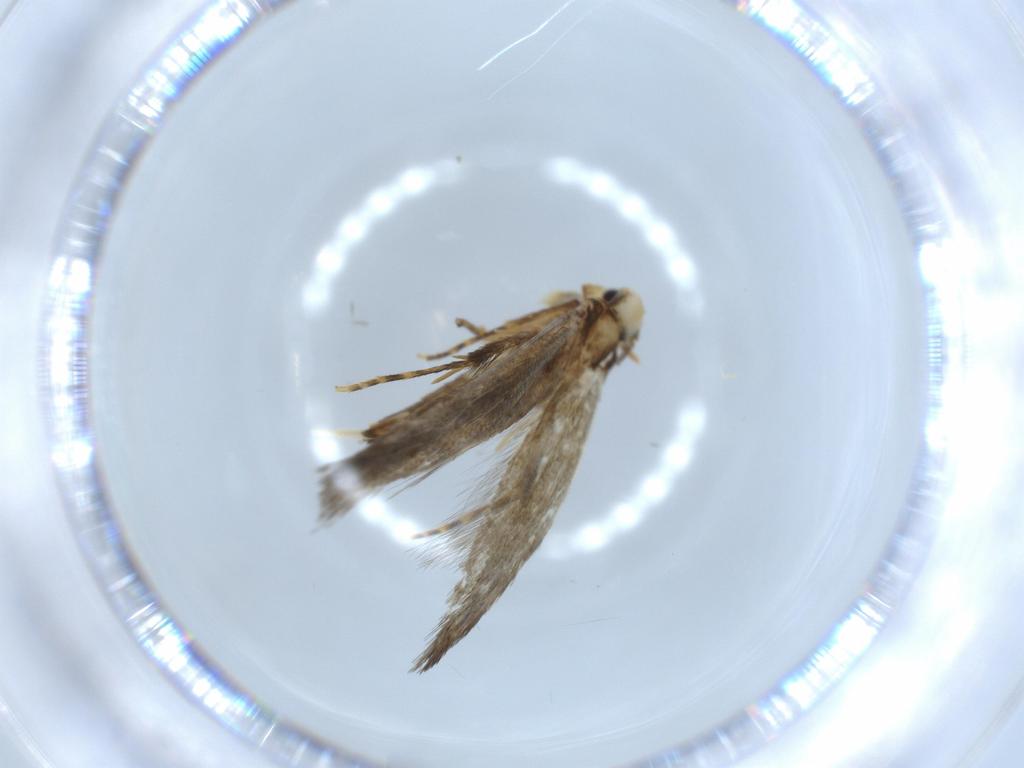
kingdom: Animalia
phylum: Arthropoda
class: Insecta
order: Lepidoptera
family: Tineidae
